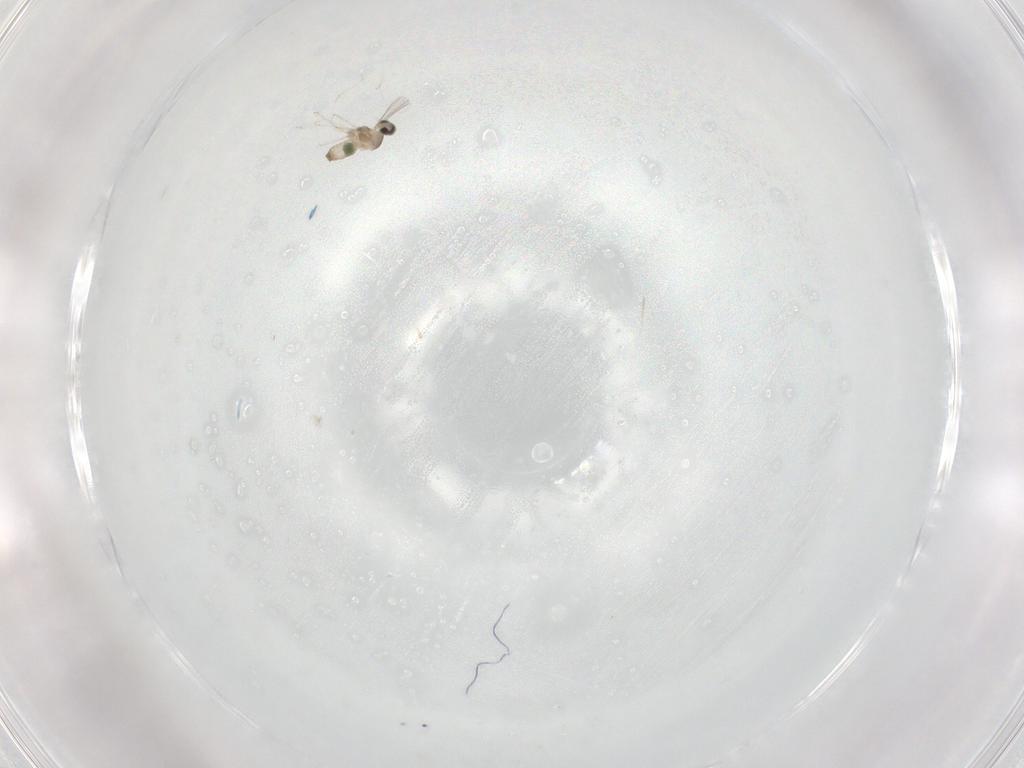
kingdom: Animalia
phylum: Arthropoda
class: Insecta
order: Diptera
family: Cecidomyiidae
